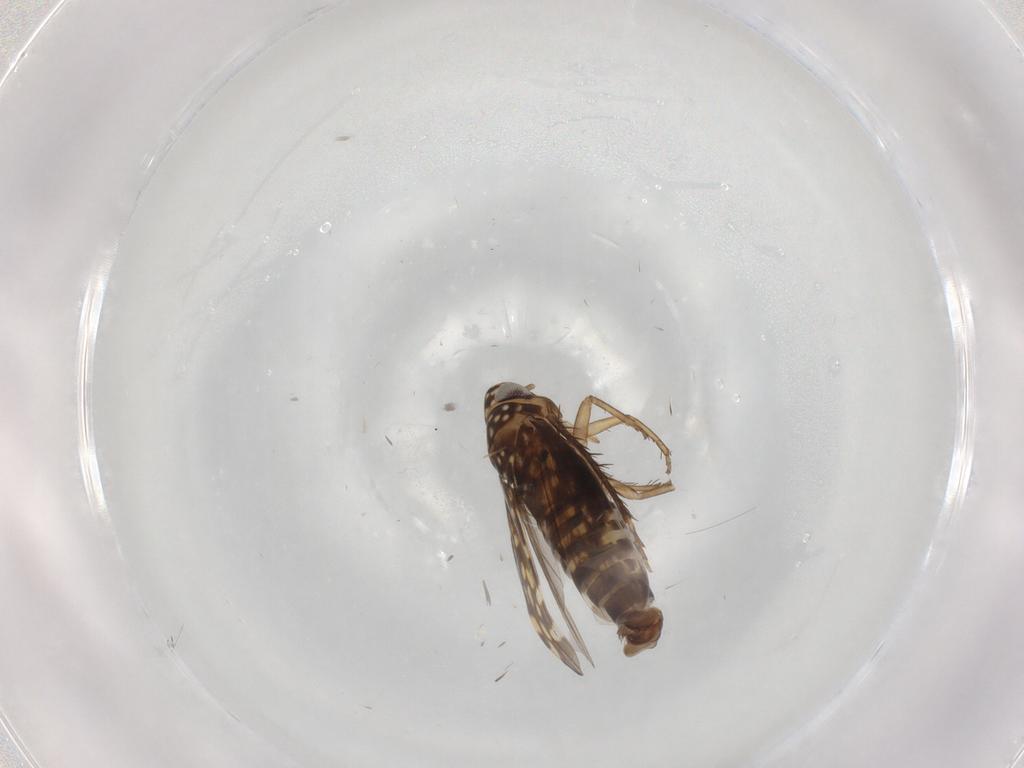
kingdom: Animalia
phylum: Arthropoda
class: Insecta
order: Hemiptera
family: Cicadellidae
